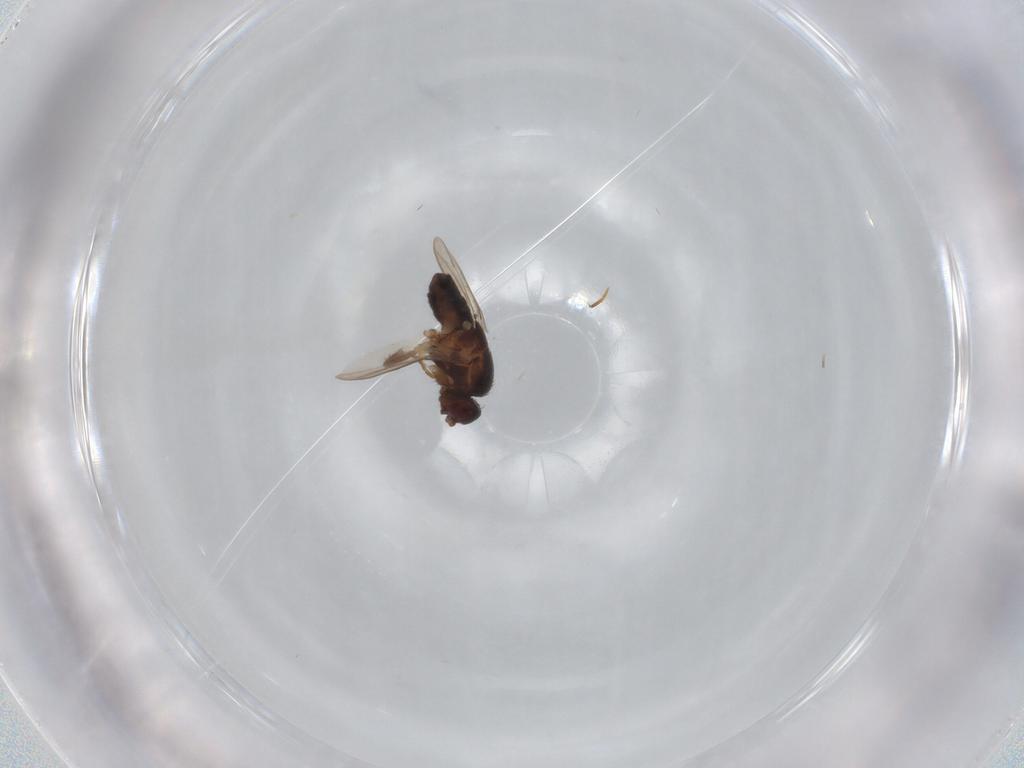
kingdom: Animalia
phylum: Arthropoda
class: Insecta
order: Diptera
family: Sphaeroceridae
